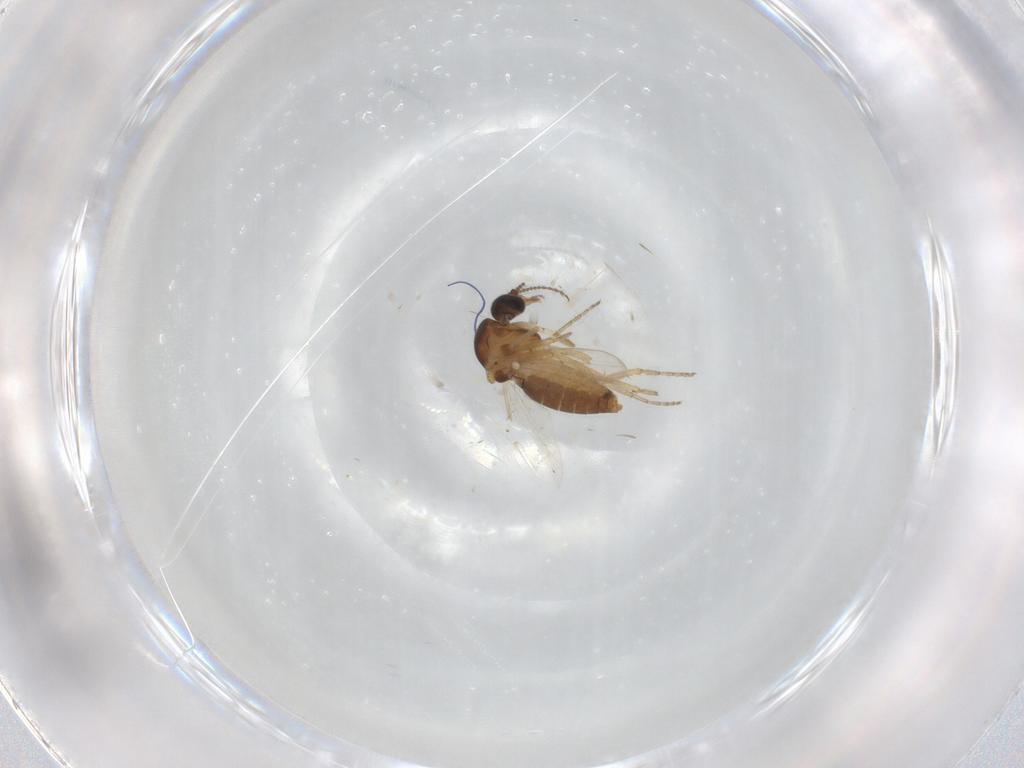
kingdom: Animalia
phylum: Arthropoda
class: Insecta
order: Diptera
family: Ceratopogonidae
